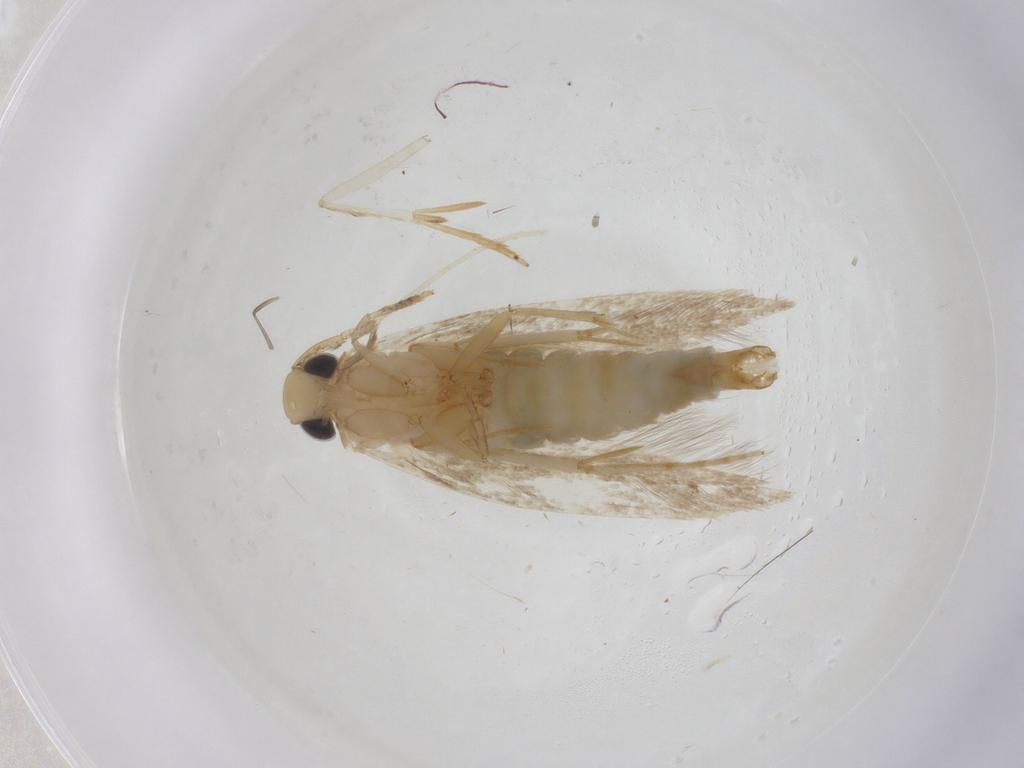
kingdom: Animalia
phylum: Arthropoda
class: Insecta
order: Lepidoptera
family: Tineidae
